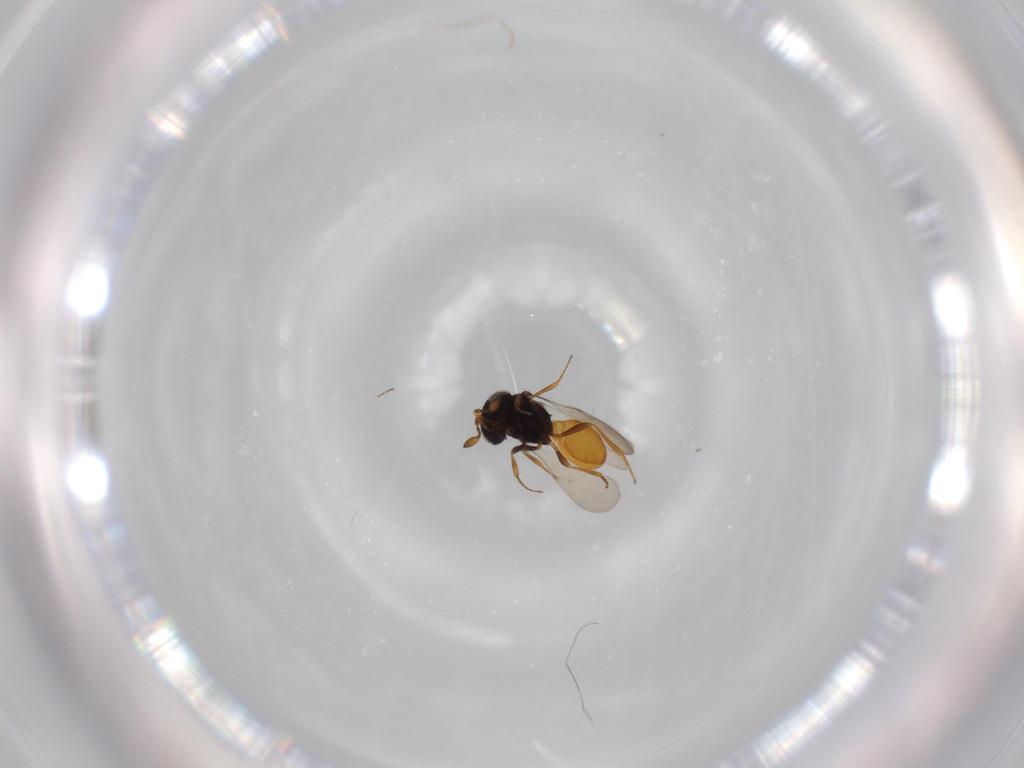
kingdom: Animalia
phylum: Arthropoda
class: Insecta
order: Hymenoptera
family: Scelionidae
